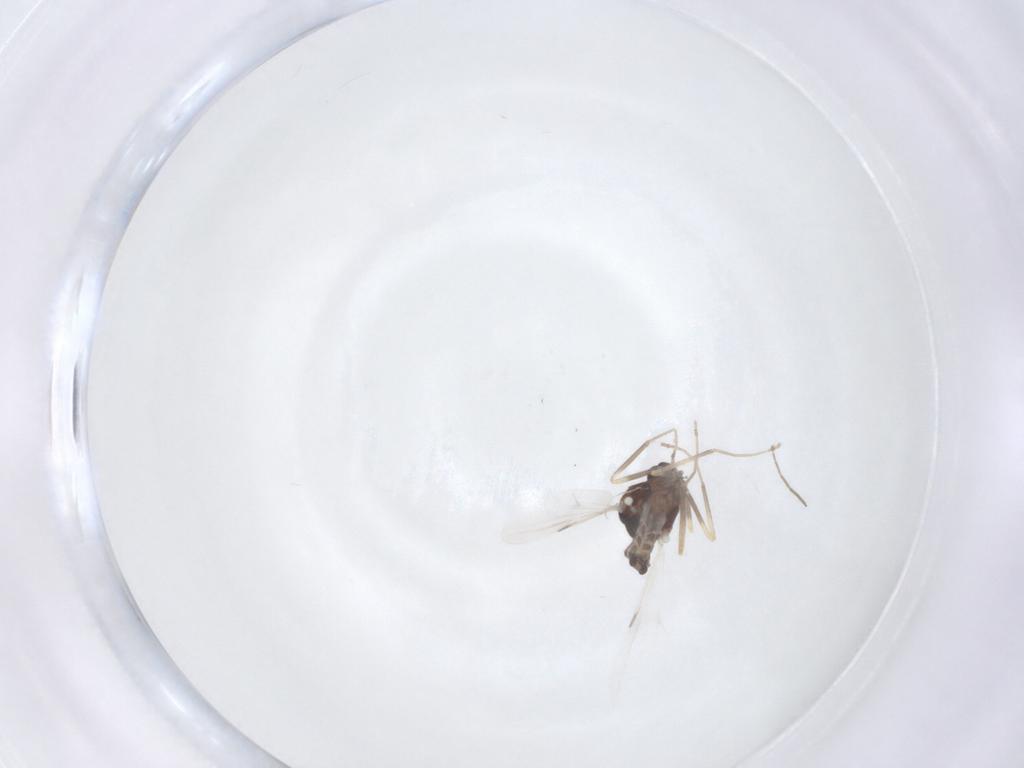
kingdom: Animalia
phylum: Arthropoda
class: Insecta
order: Diptera
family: Ceratopogonidae
